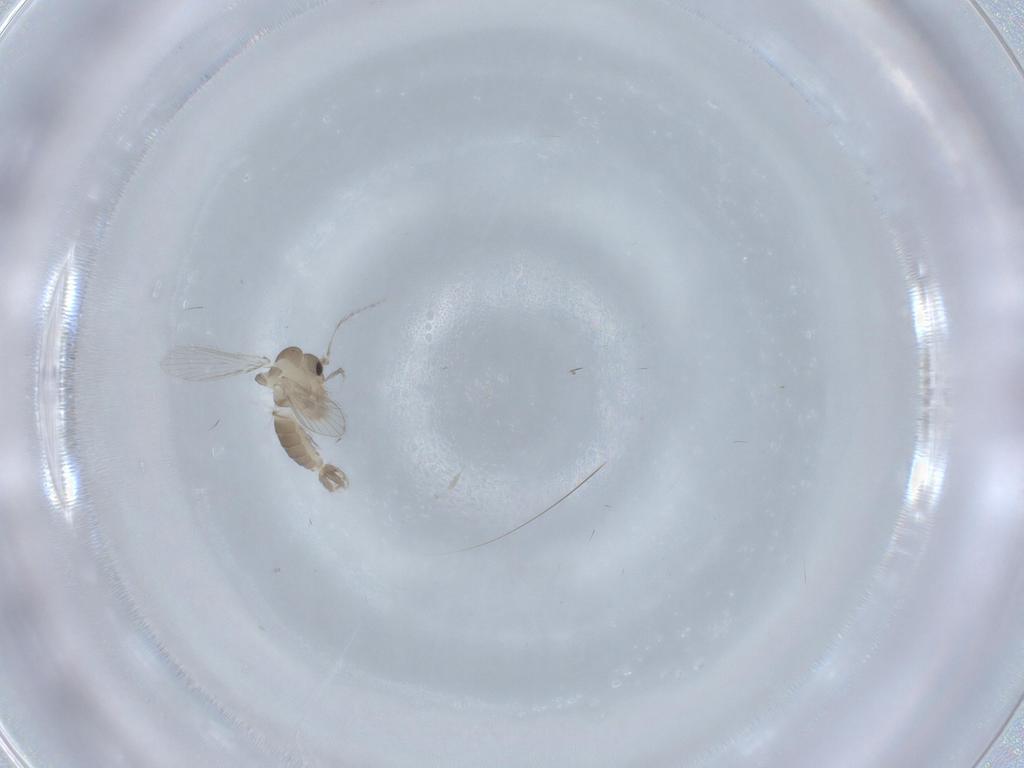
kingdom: Animalia
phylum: Arthropoda
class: Insecta
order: Diptera
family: Psychodidae
